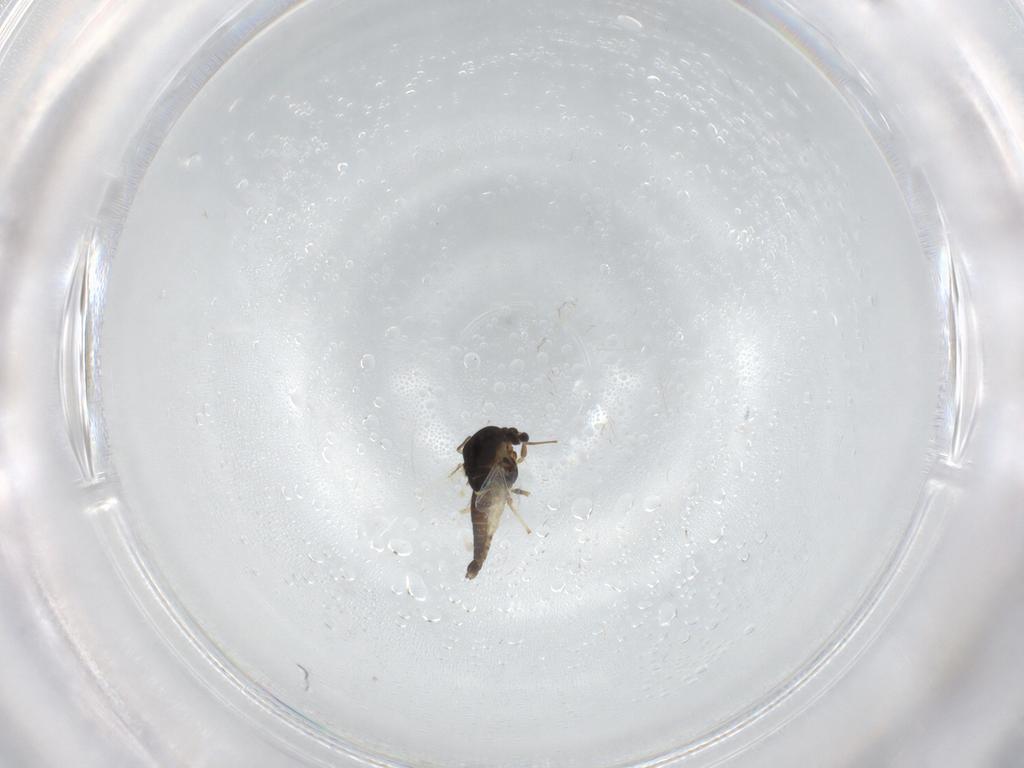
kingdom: Animalia
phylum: Arthropoda
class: Insecta
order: Diptera
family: Chironomidae
